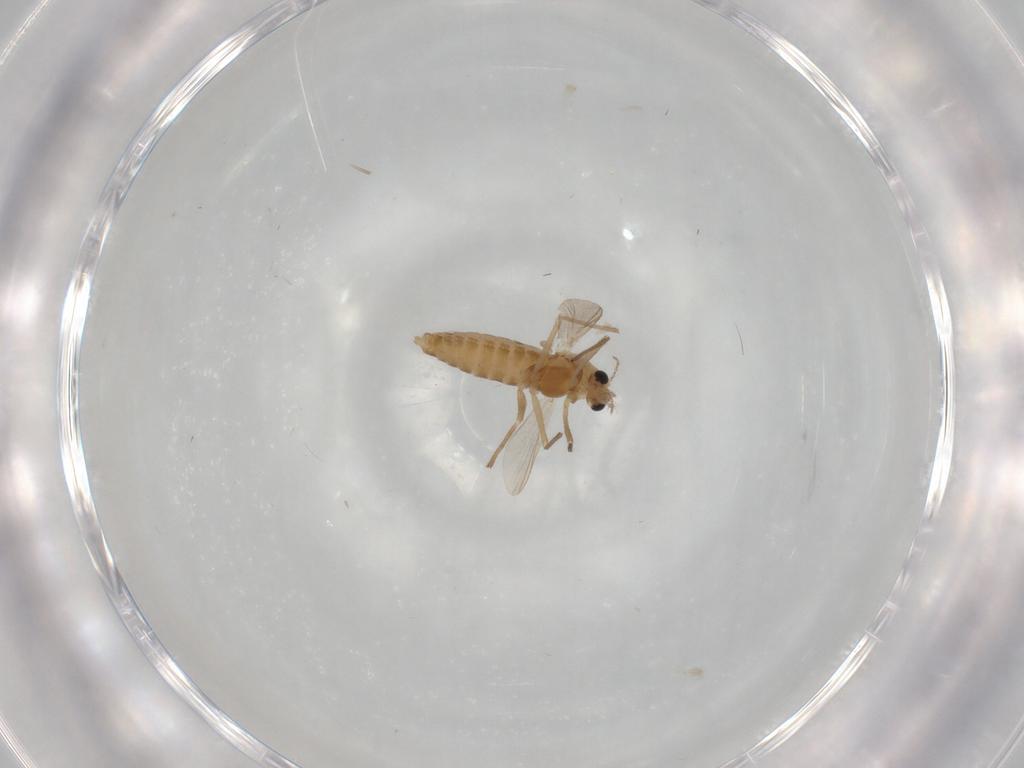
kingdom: Animalia
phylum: Arthropoda
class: Insecta
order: Diptera
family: Chironomidae
